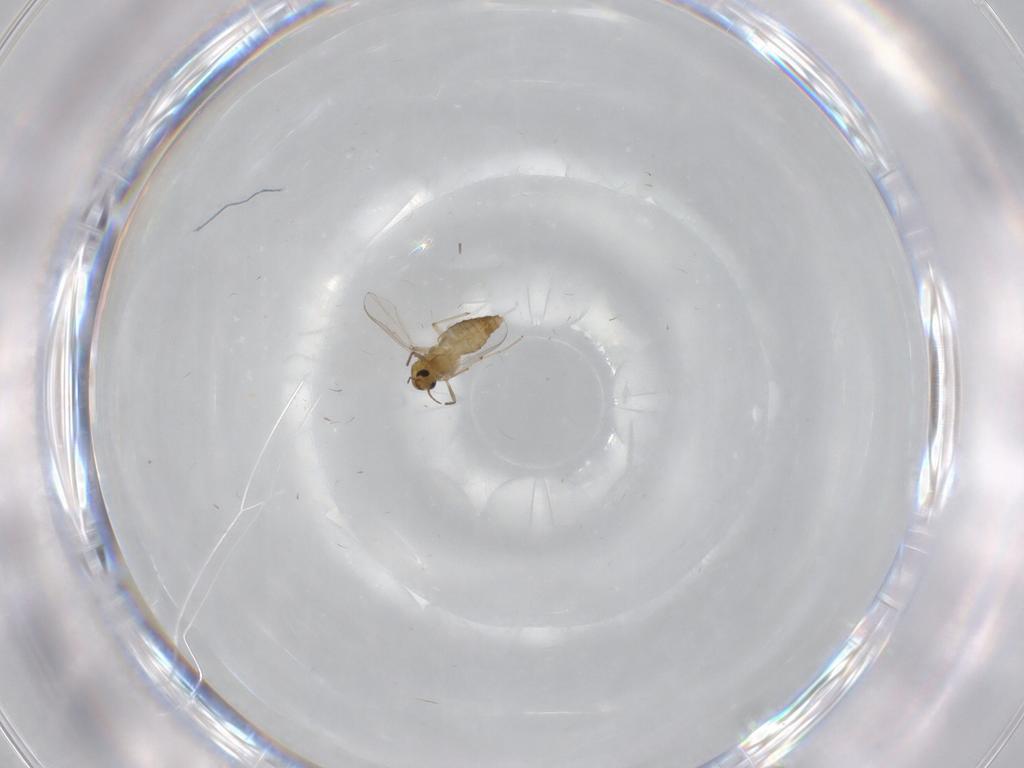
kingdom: Animalia
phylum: Arthropoda
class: Insecta
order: Diptera
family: Chironomidae
